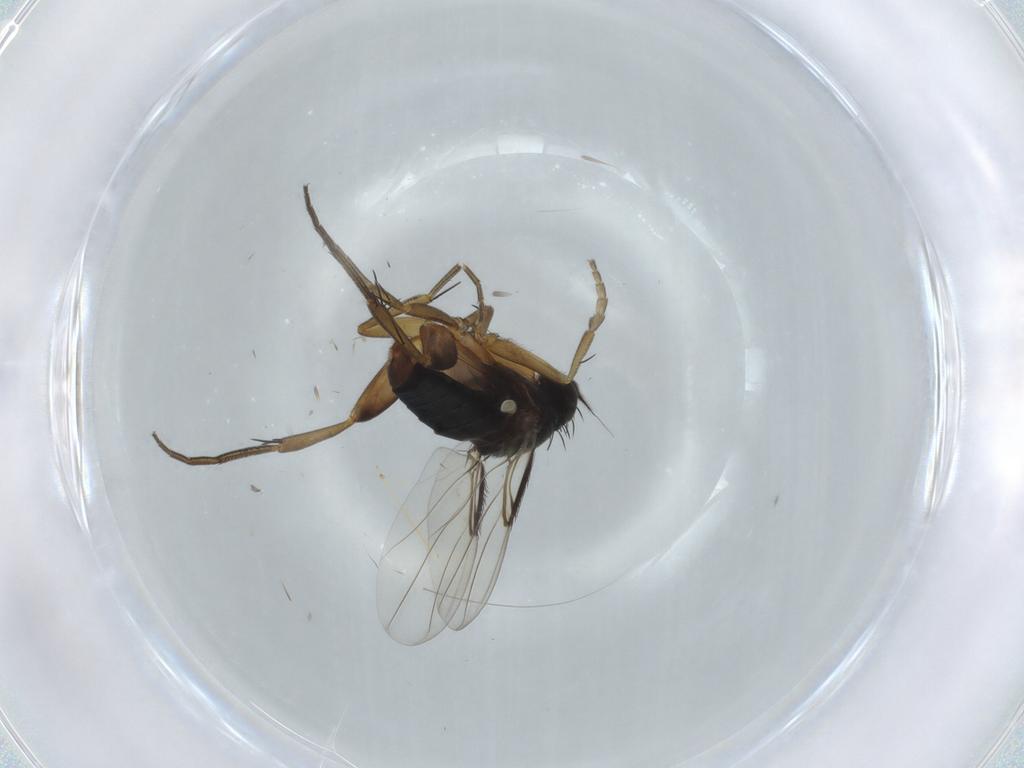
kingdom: Animalia
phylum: Arthropoda
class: Insecta
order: Diptera
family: Phoridae
